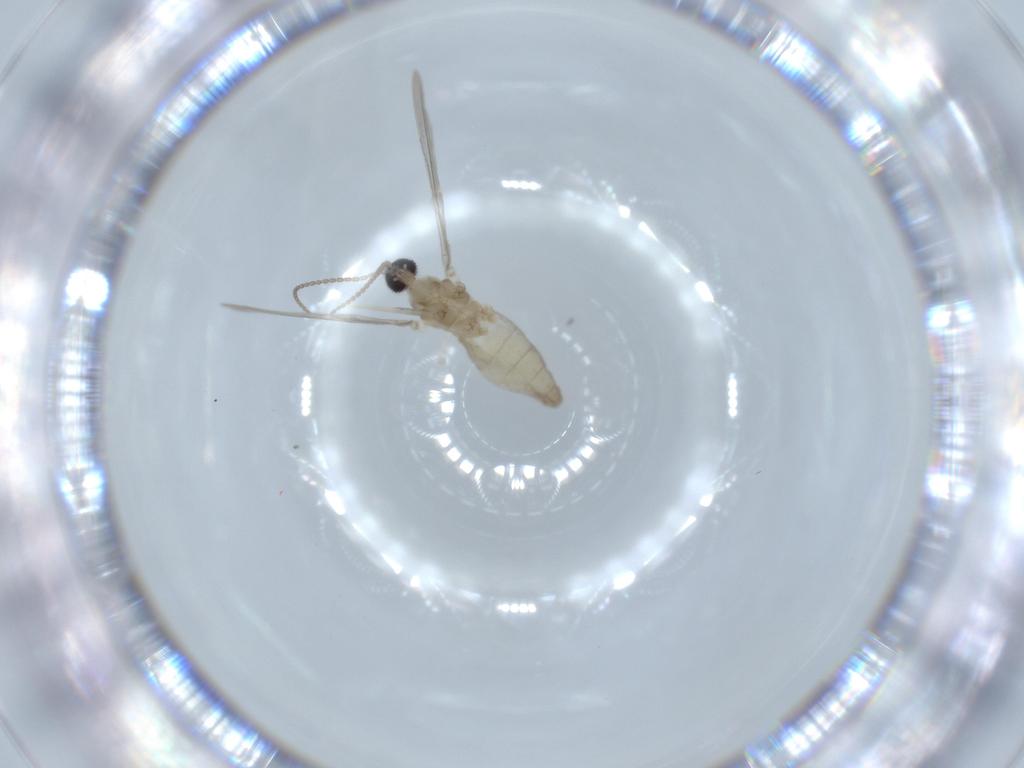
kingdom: Animalia
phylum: Arthropoda
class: Insecta
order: Diptera
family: Cecidomyiidae
